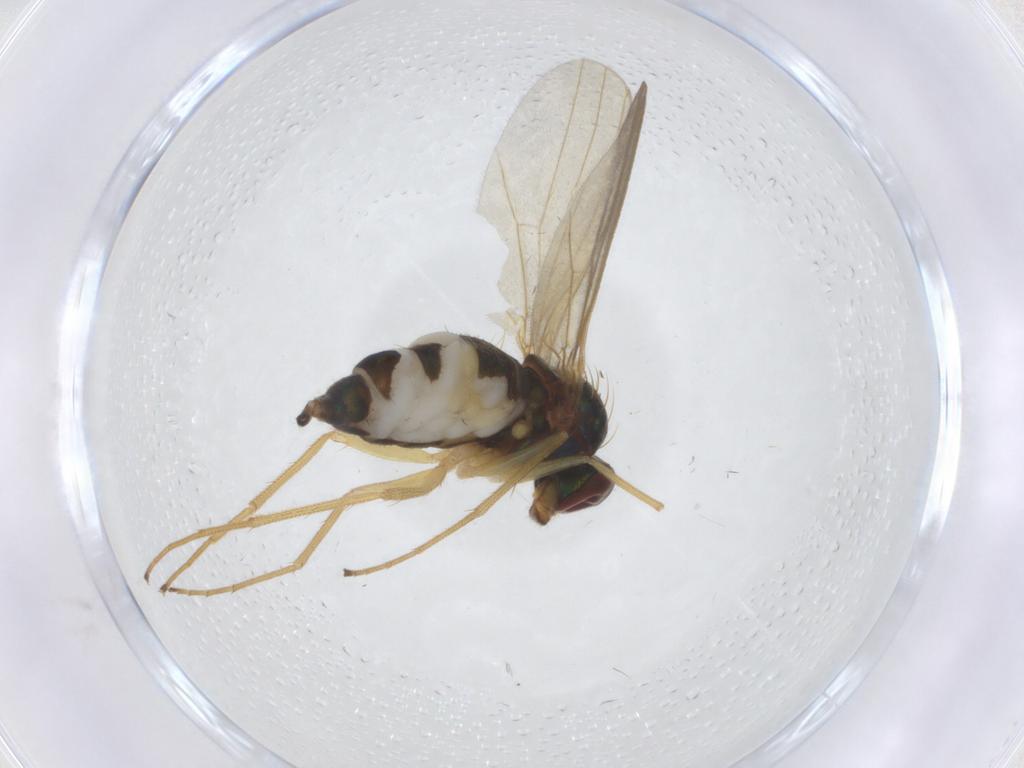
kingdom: Animalia
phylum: Arthropoda
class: Insecta
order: Diptera
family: Dolichopodidae
